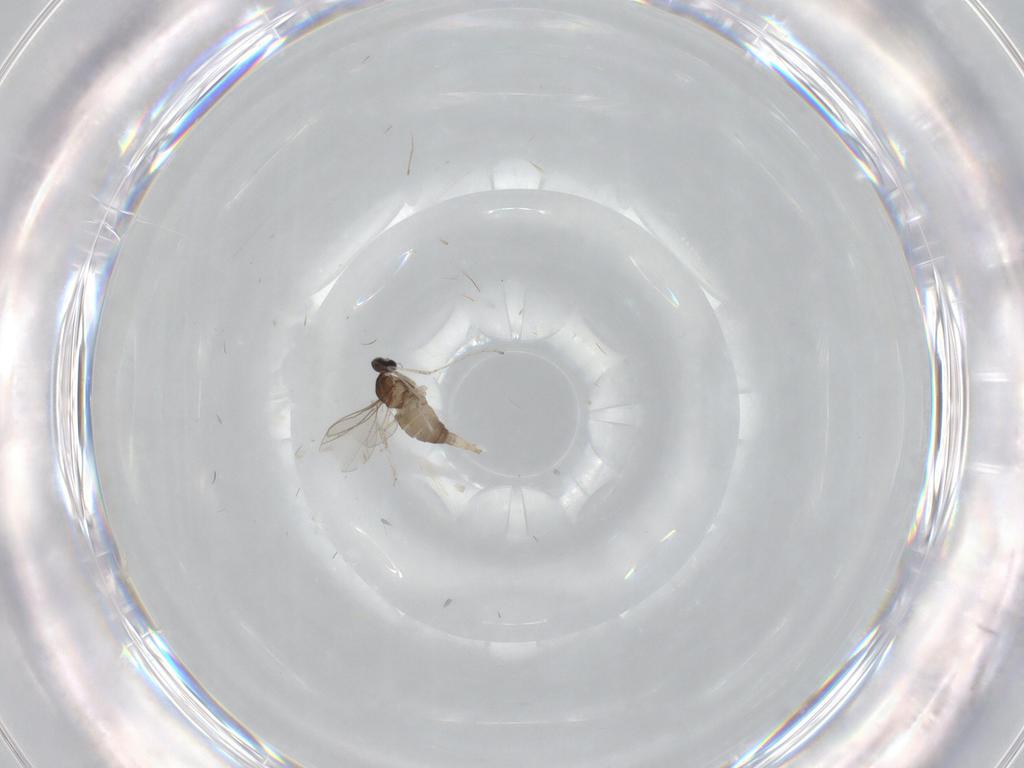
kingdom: Animalia
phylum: Arthropoda
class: Insecta
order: Diptera
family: Cecidomyiidae
